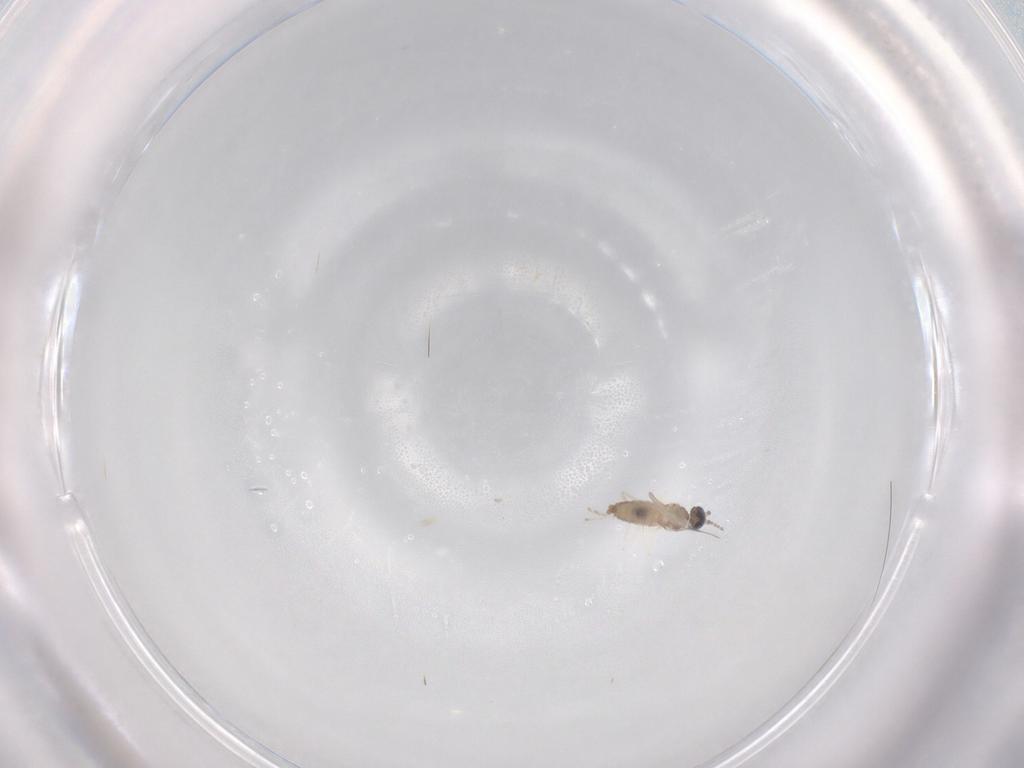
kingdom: Animalia
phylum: Arthropoda
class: Insecta
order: Diptera
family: Cecidomyiidae
